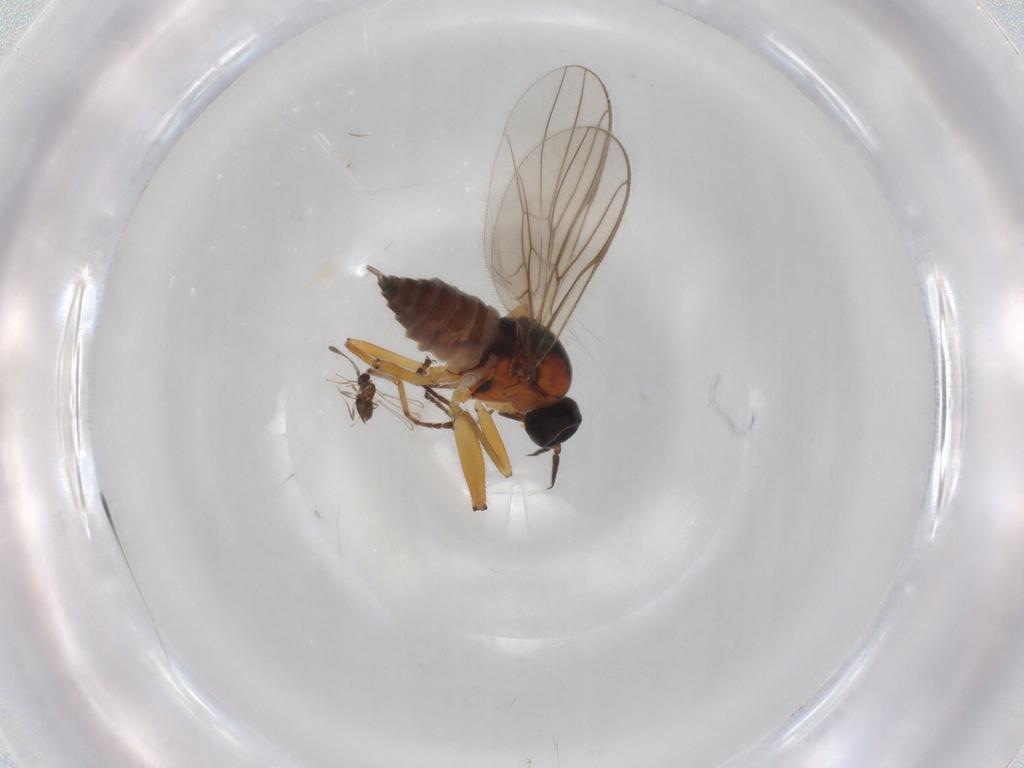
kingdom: Animalia
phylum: Arthropoda
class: Insecta
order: Diptera
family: Hybotidae
